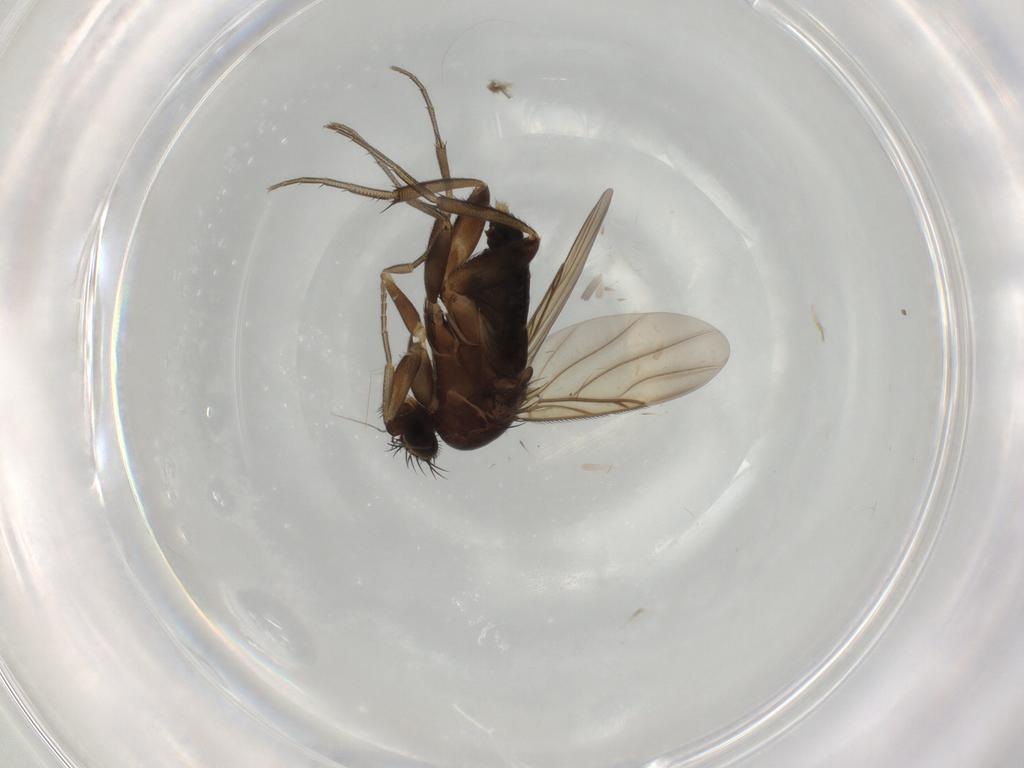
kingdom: Animalia
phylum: Arthropoda
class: Insecta
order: Diptera
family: Phoridae
